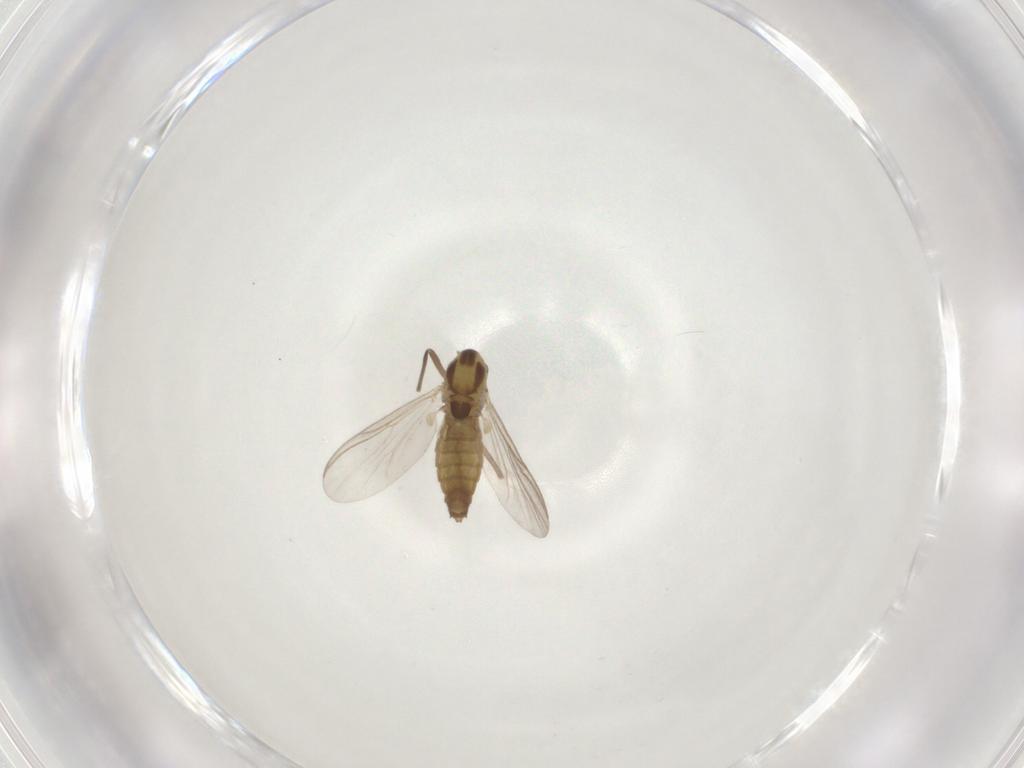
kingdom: Animalia
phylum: Arthropoda
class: Insecta
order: Diptera
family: Chironomidae
